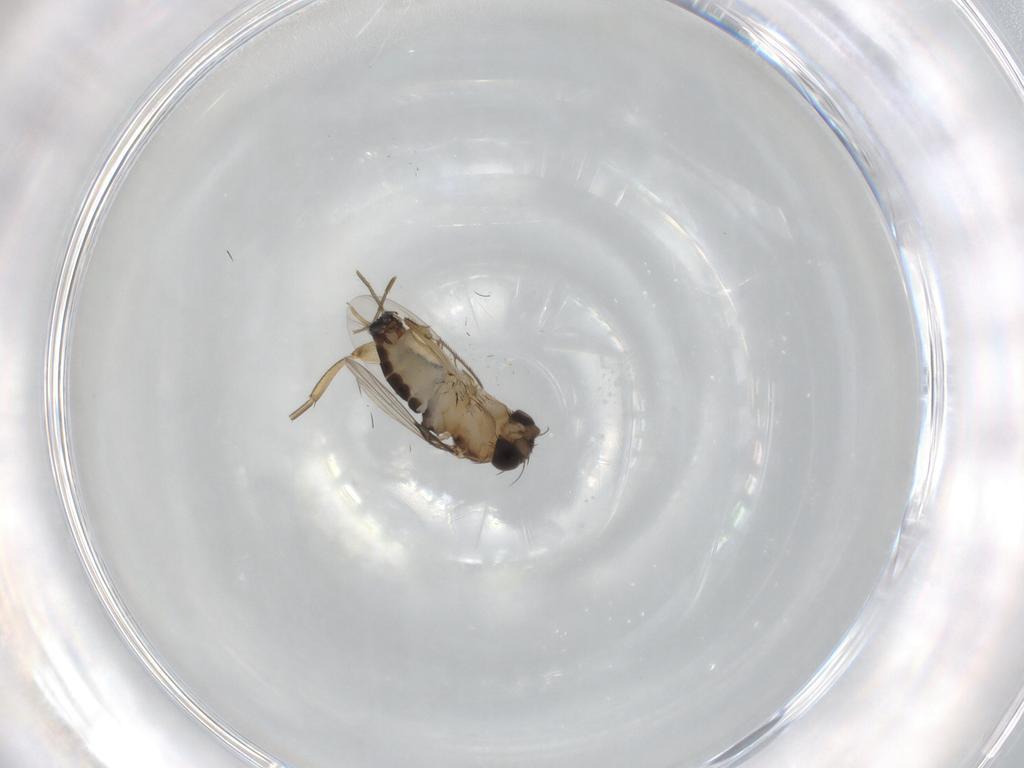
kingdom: Animalia
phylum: Arthropoda
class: Insecta
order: Diptera
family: Phoridae
